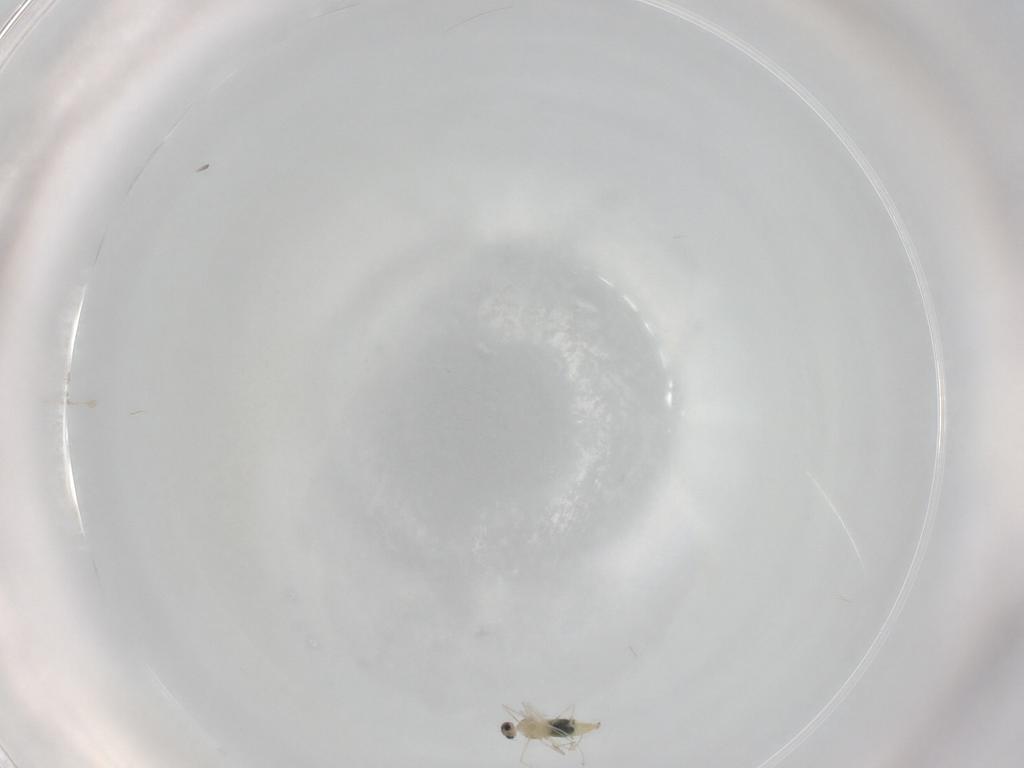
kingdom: Animalia
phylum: Arthropoda
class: Insecta
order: Diptera
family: Cecidomyiidae
